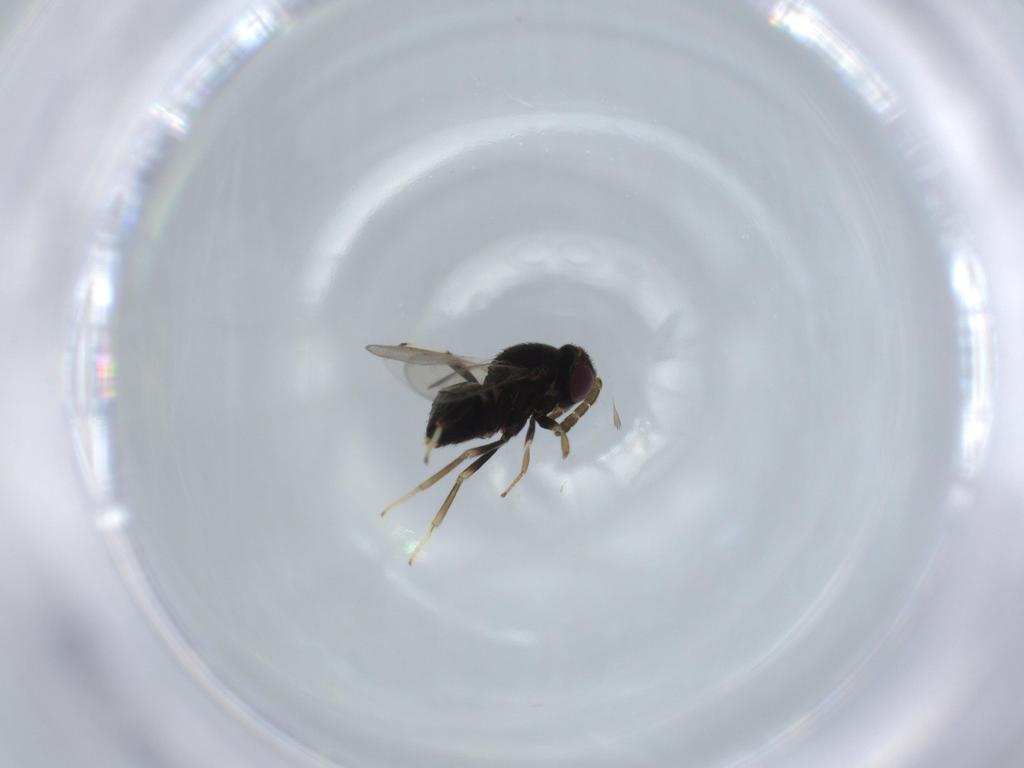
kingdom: Animalia
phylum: Arthropoda
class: Insecta
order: Hymenoptera
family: Aphelinidae
